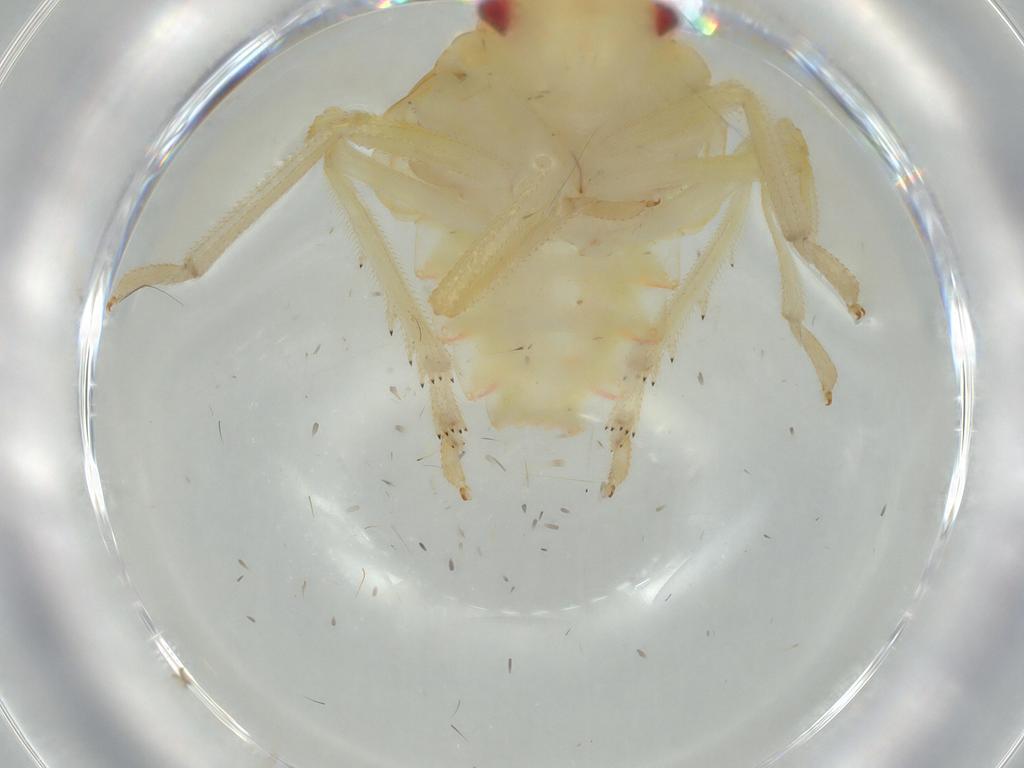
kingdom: Animalia
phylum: Arthropoda
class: Insecta
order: Hemiptera
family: Tropiduchidae
